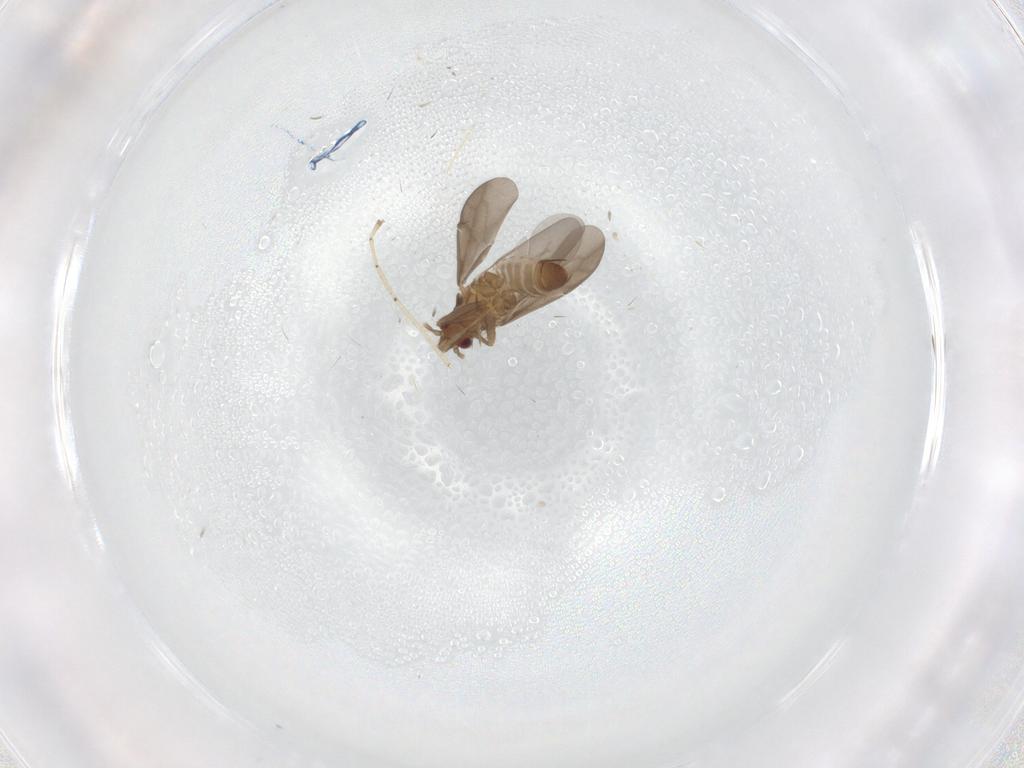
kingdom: Animalia
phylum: Arthropoda
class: Insecta
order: Hemiptera
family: Ceratocombidae
